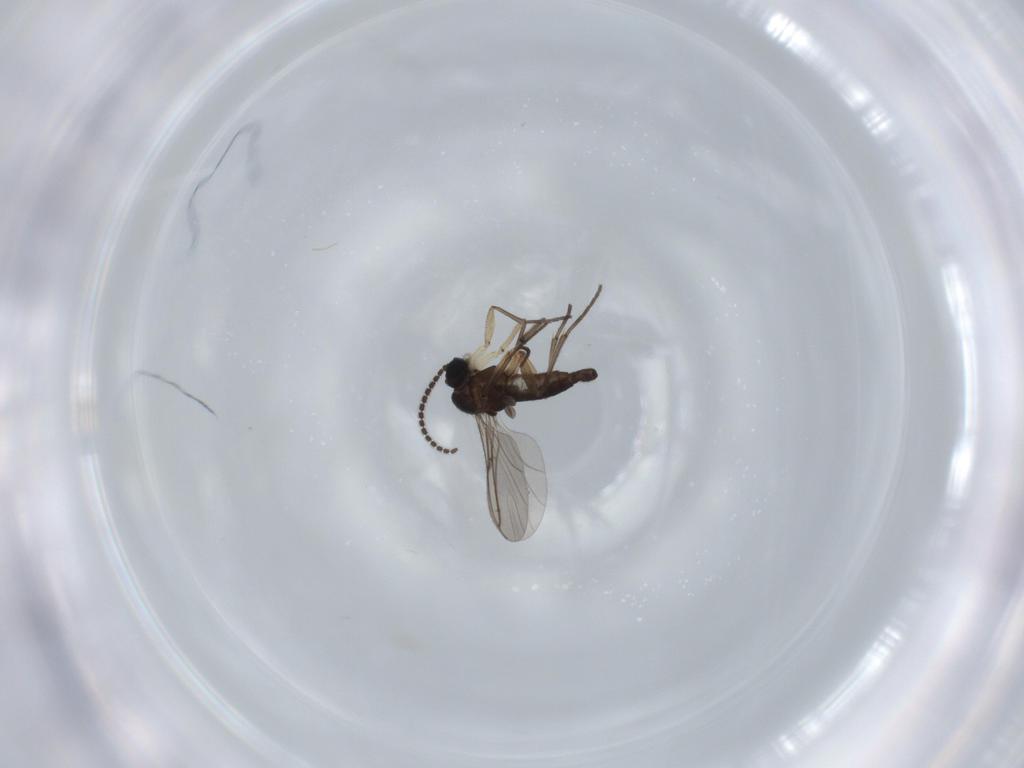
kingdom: Animalia
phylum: Arthropoda
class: Insecta
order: Diptera
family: Sciaridae
